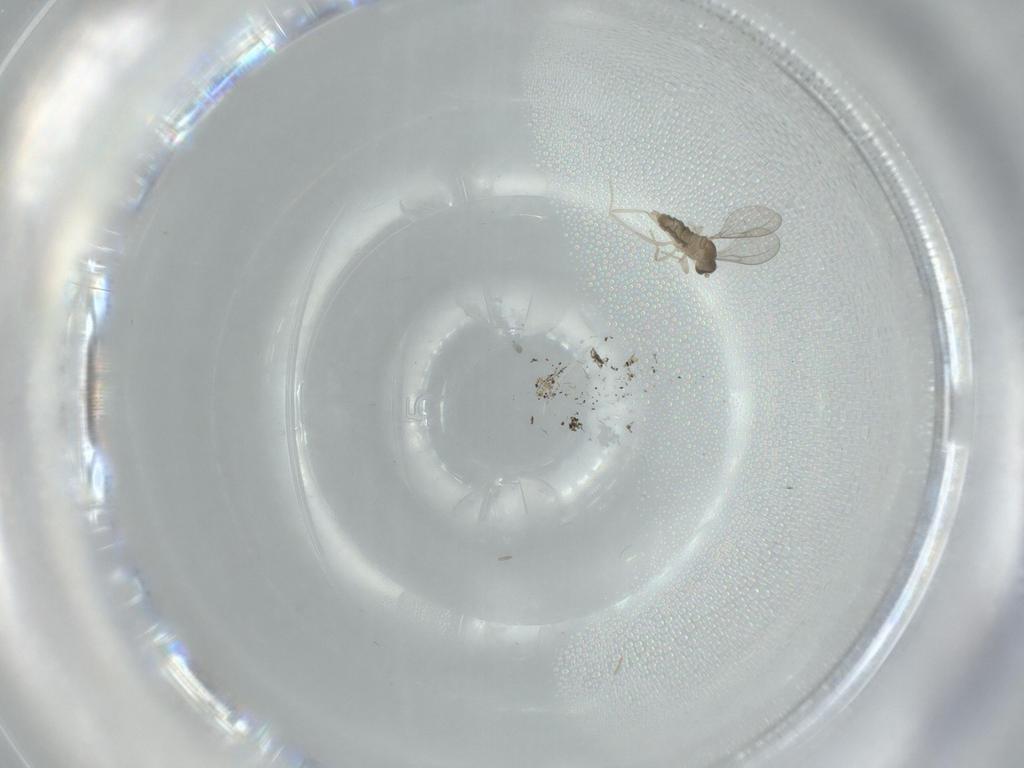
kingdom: Animalia
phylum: Arthropoda
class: Insecta
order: Diptera
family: Cecidomyiidae
